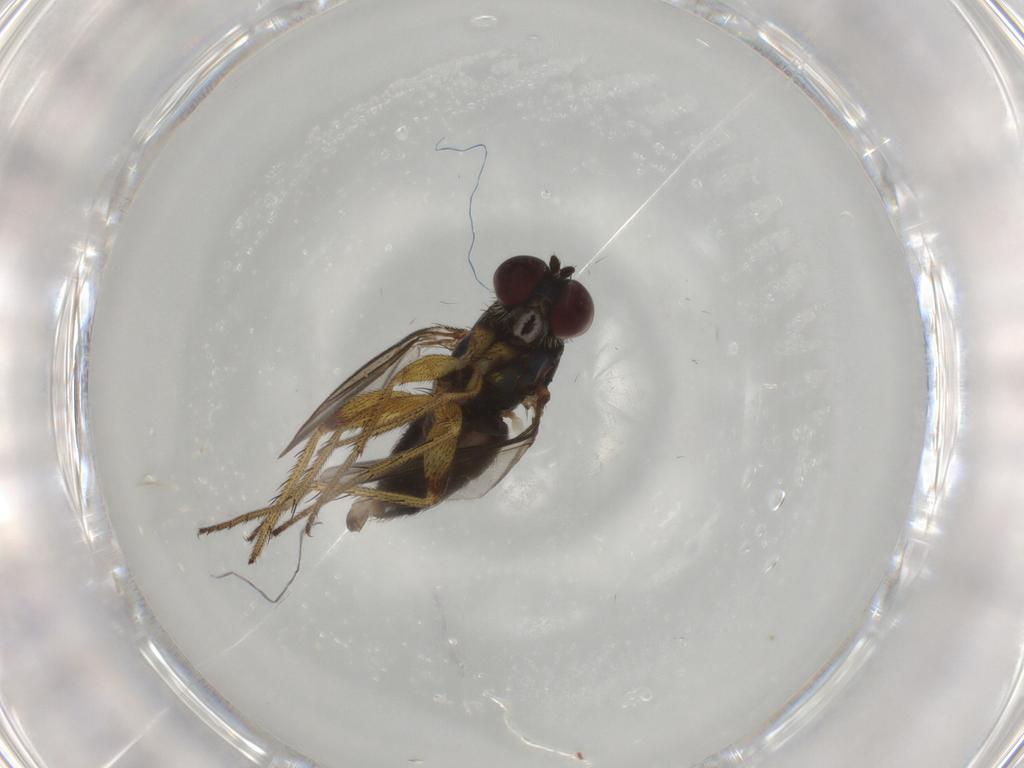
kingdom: Animalia
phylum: Arthropoda
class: Insecta
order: Diptera
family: Dolichopodidae
